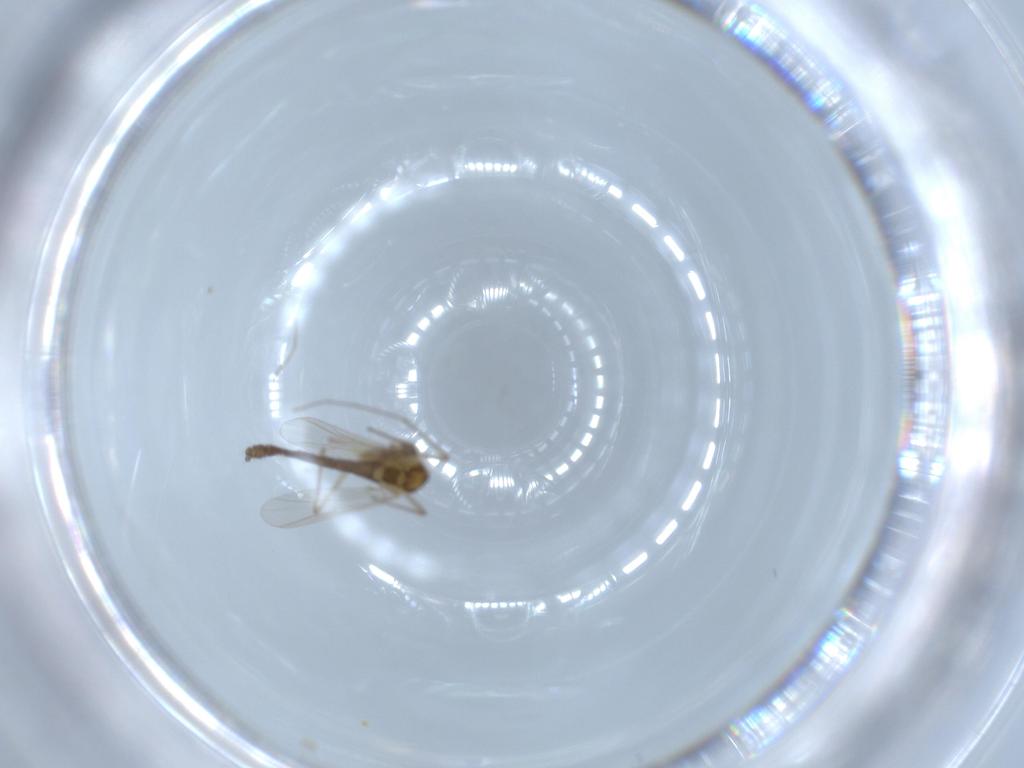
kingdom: Animalia
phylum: Arthropoda
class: Insecta
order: Diptera
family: Chironomidae
